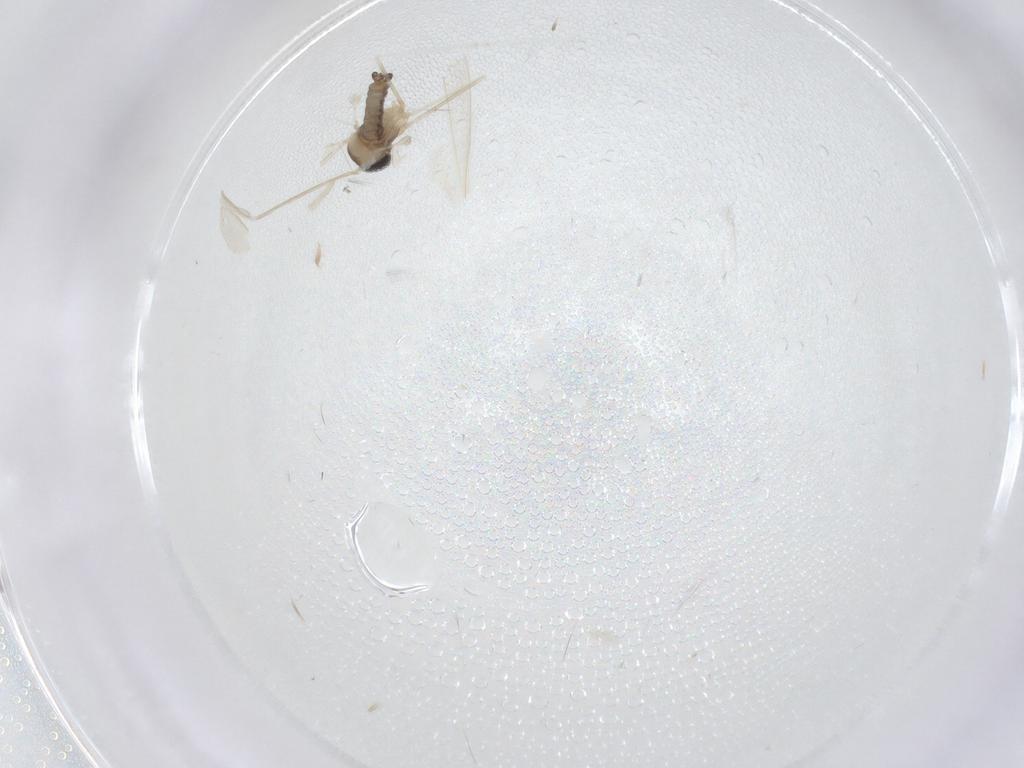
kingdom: Animalia
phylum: Arthropoda
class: Insecta
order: Diptera
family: Cecidomyiidae
